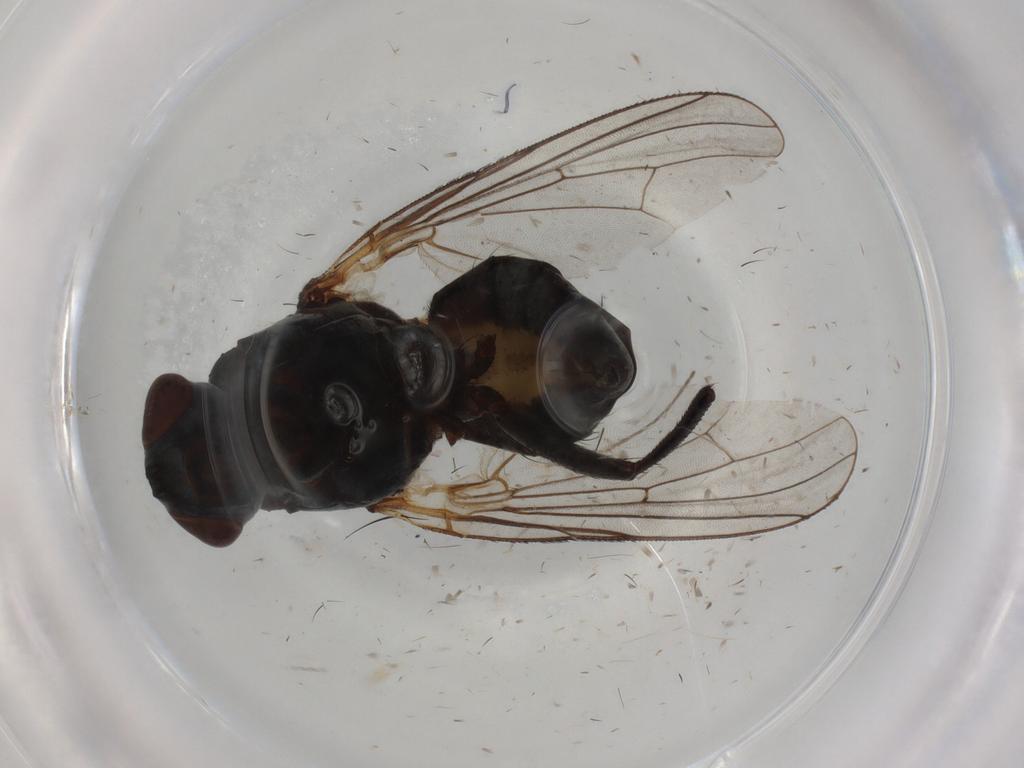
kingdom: Animalia
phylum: Arthropoda
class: Insecta
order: Diptera
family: Anthomyiidae
